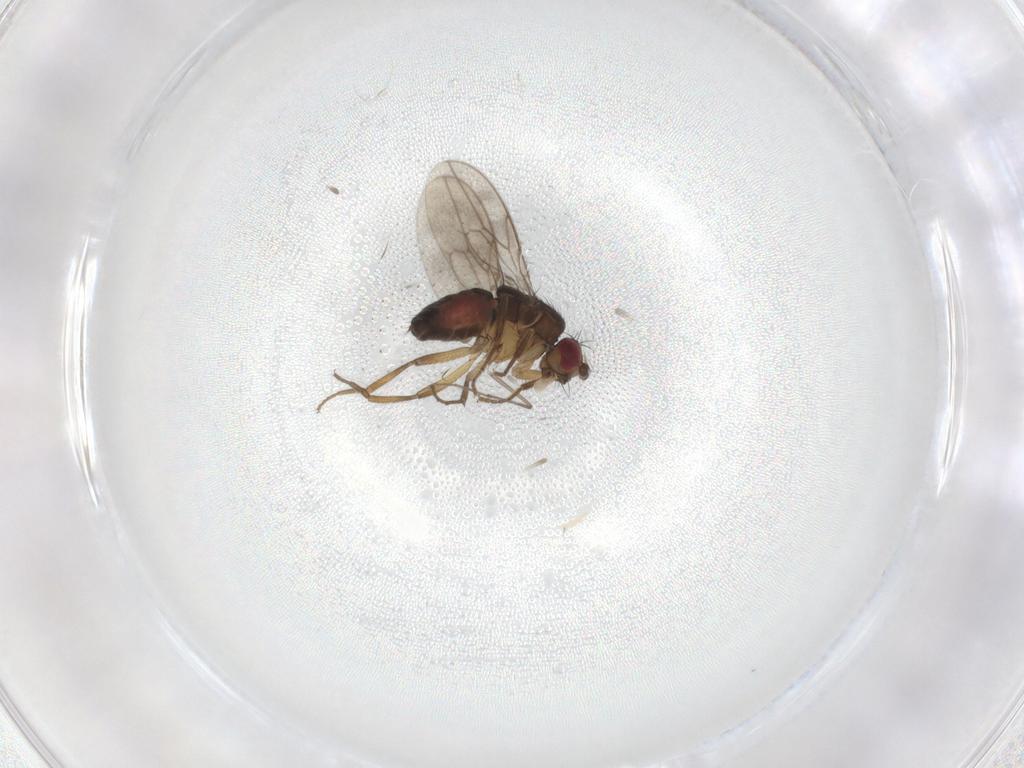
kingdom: Animalia
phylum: Arthropoda
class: Insecta
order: Diptera
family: Sphaeroceridae
